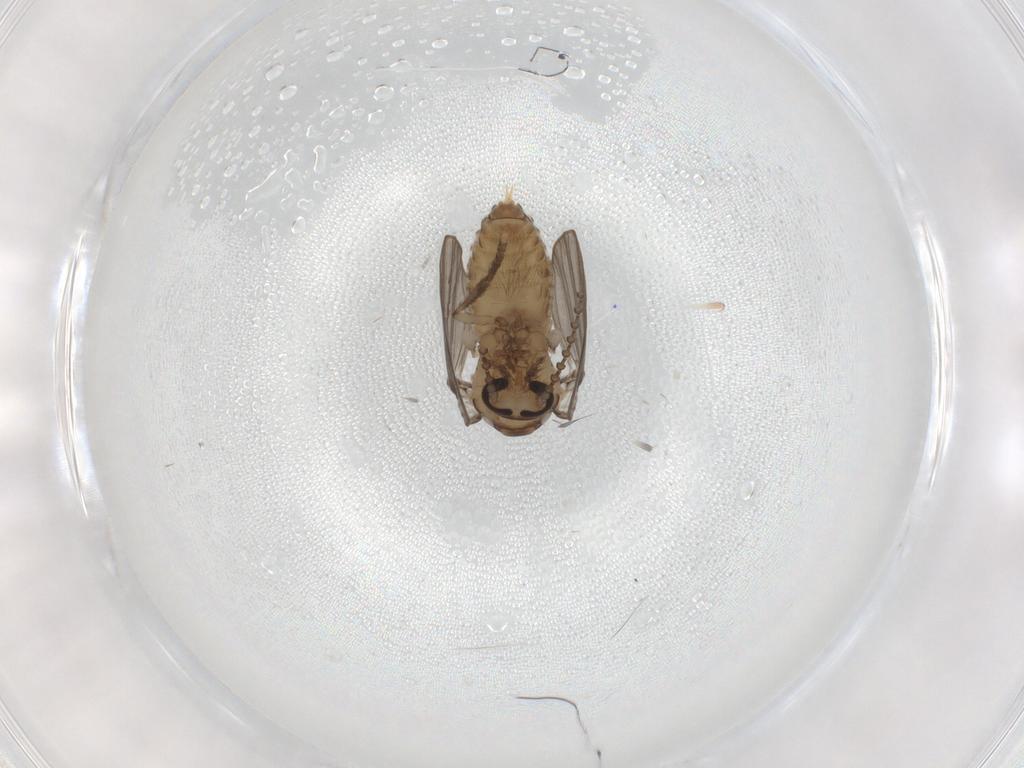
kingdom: Animalia
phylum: Arthropoda
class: Insecta
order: Diptera
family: Psychodidae
